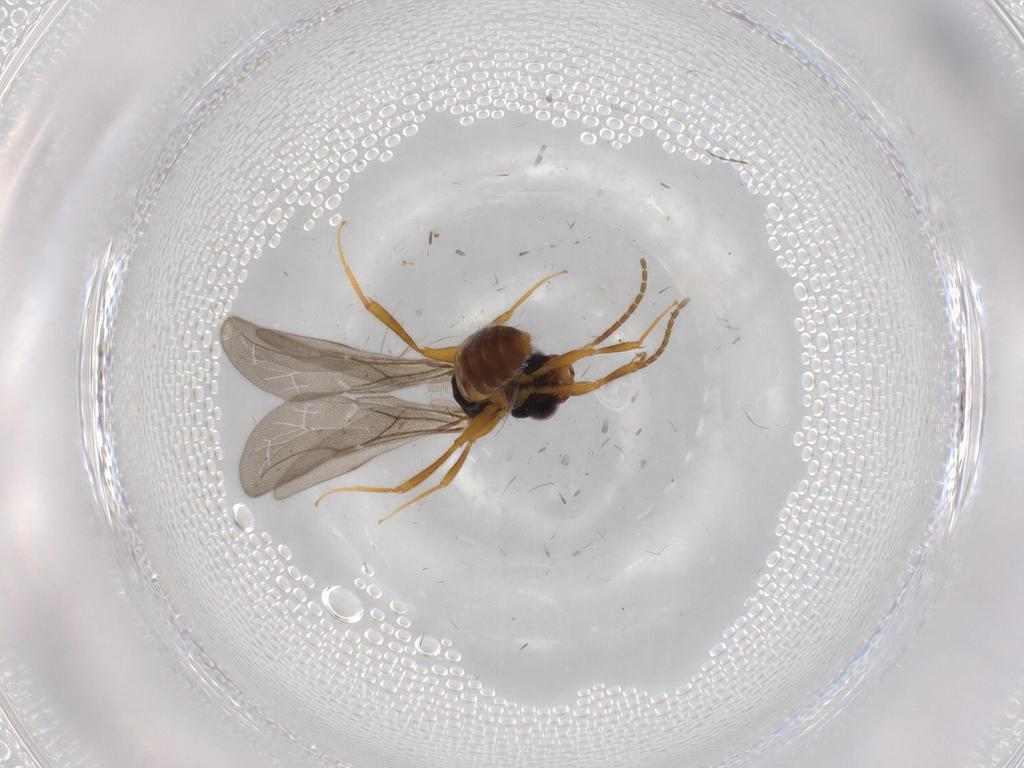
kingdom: Animalia
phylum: Arthropoda
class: Insecta
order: Hymenoptera
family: Bethylidae
